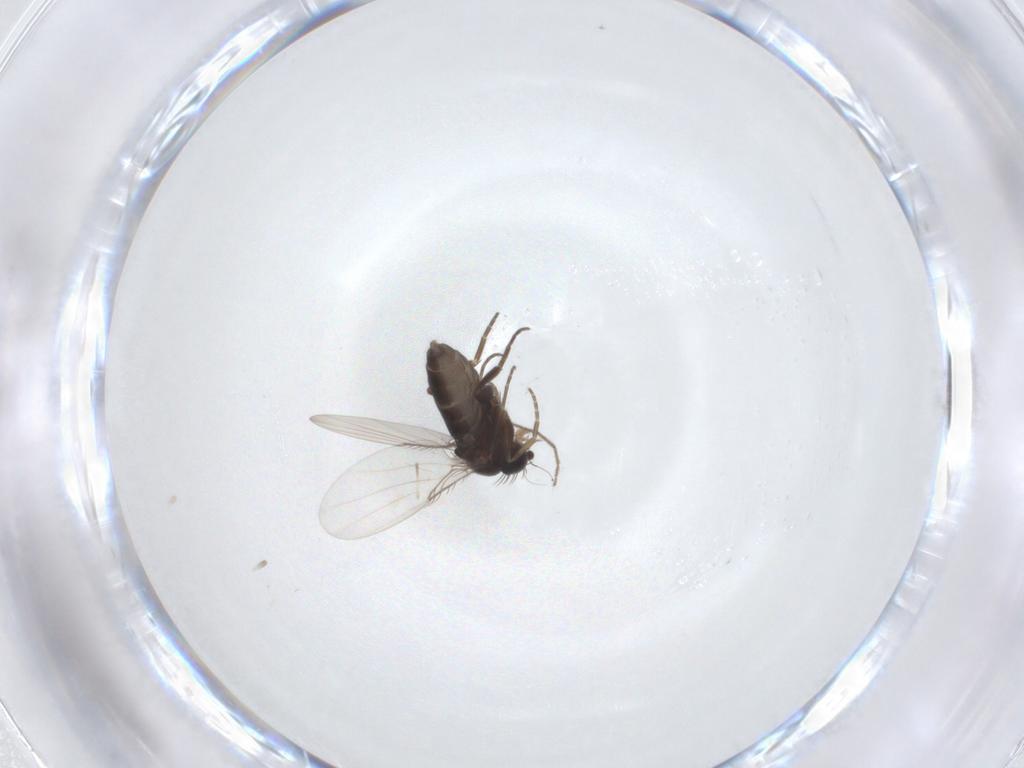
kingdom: Animalia
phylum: Arthropoda
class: Insecta
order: Diptera
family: Phoridae
